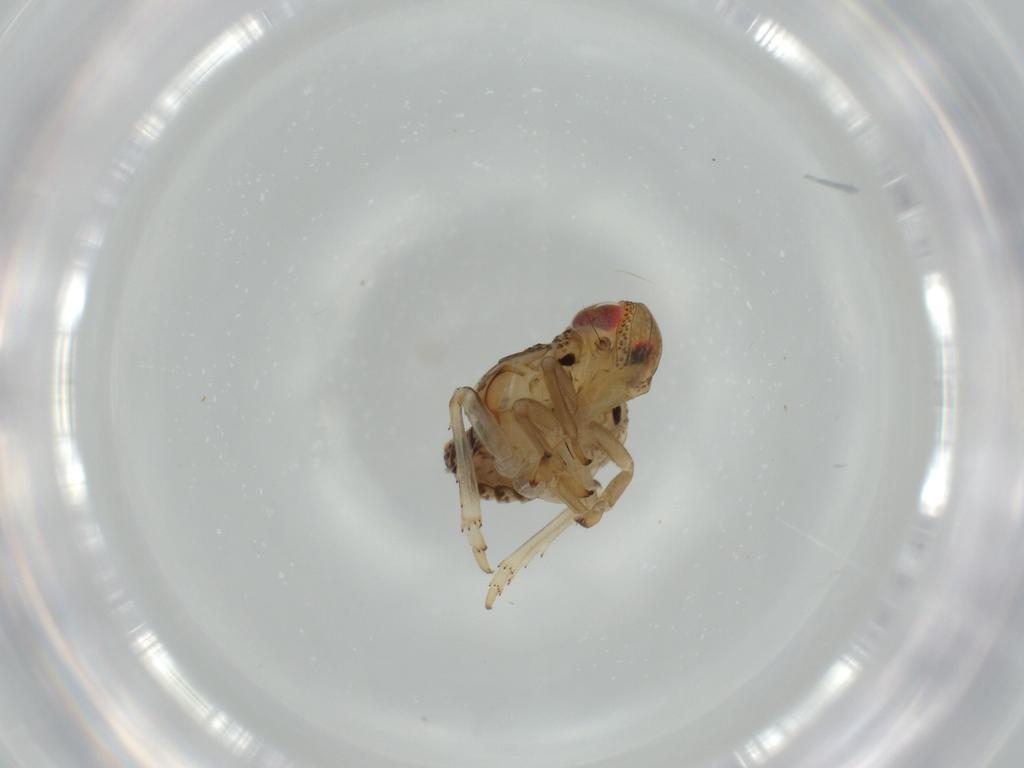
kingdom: Animalia
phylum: Arthropoda
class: Insecta
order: Hemiptera
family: Issidae
